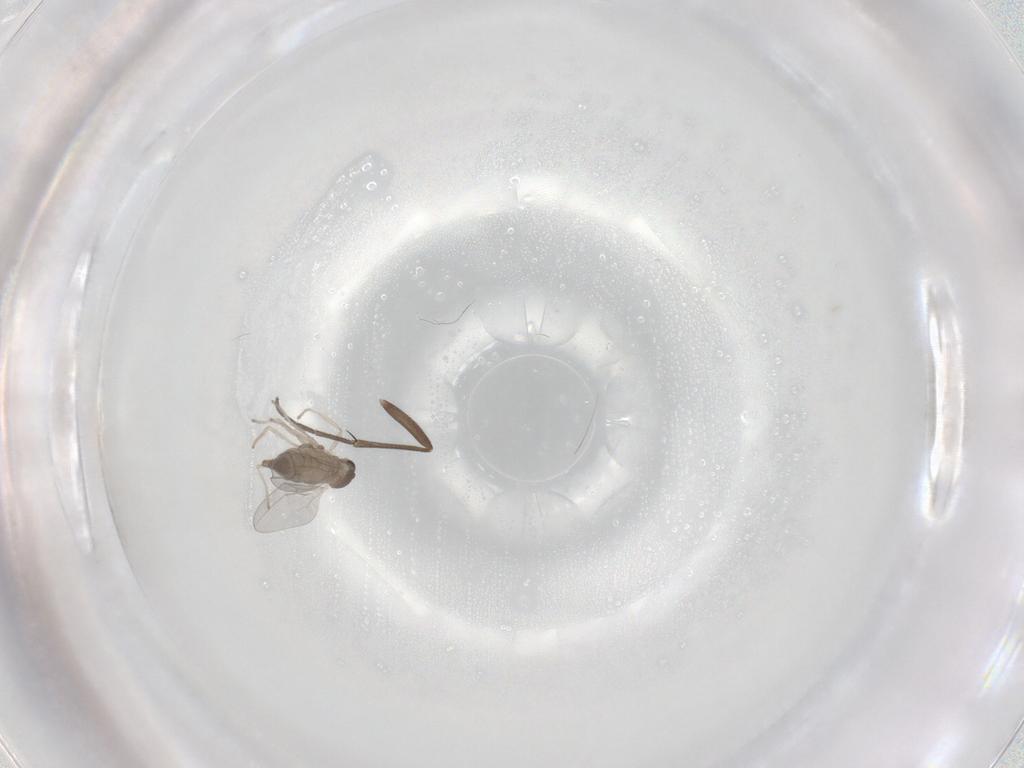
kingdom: Animalia
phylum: Arthropoda
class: Insecta
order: Diptera
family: Cecidomyiidae
